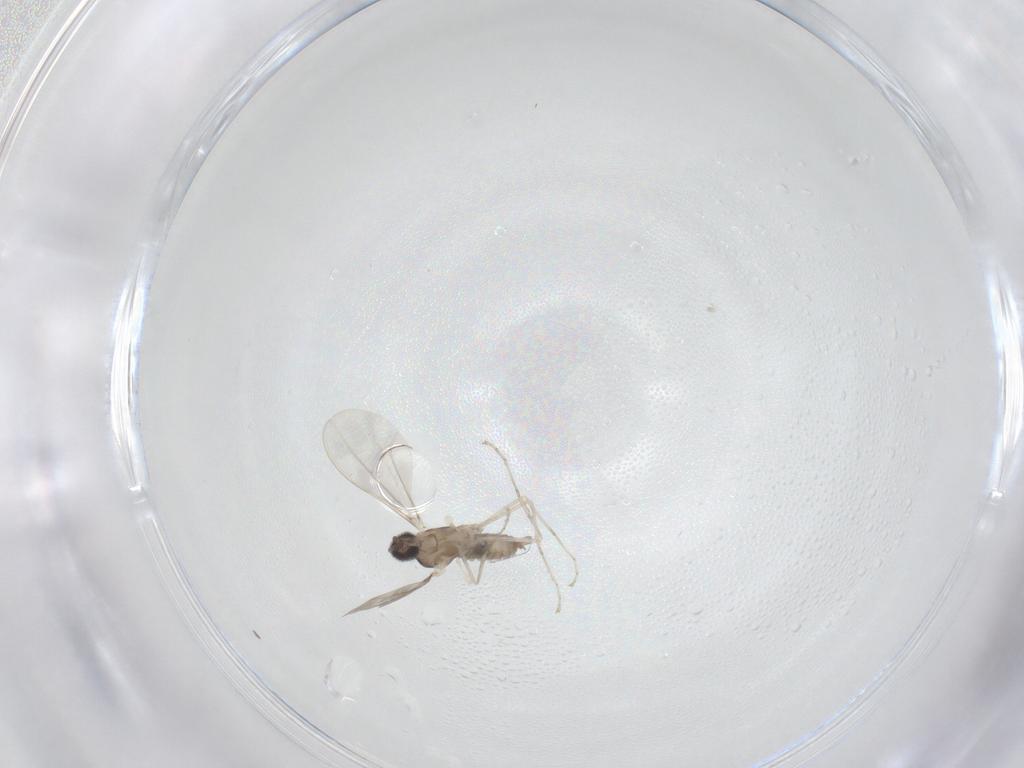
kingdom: Animalia
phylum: Arthropoda
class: Insecta
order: Diptera
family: Cecidomyiidae
